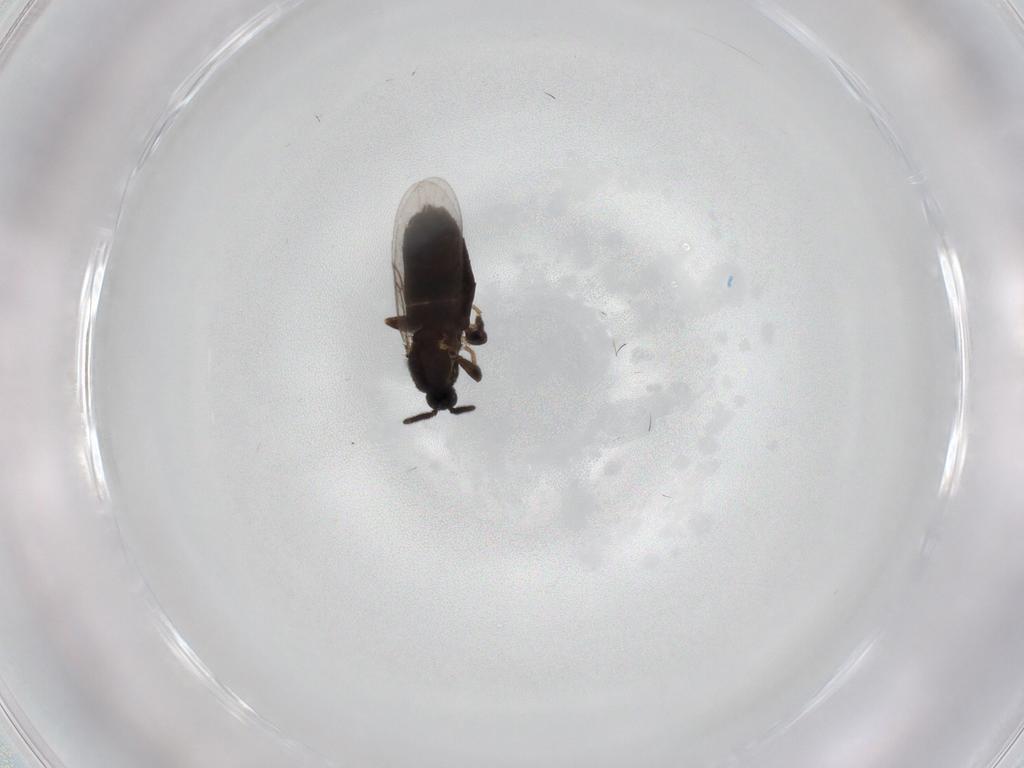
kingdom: Animalia
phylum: Arthropoda
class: Insecta
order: Diptera
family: Scatopsidae
